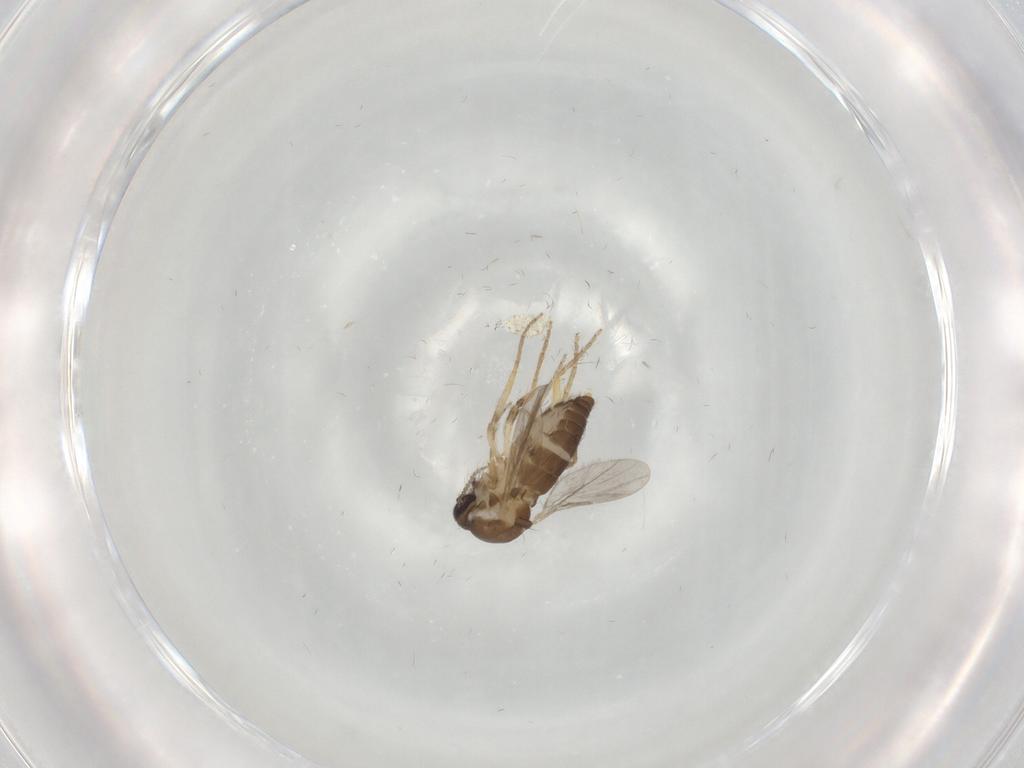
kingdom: Animalia
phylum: Arthropoda
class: Insecta
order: Diptera
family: Ceratopogonidae
